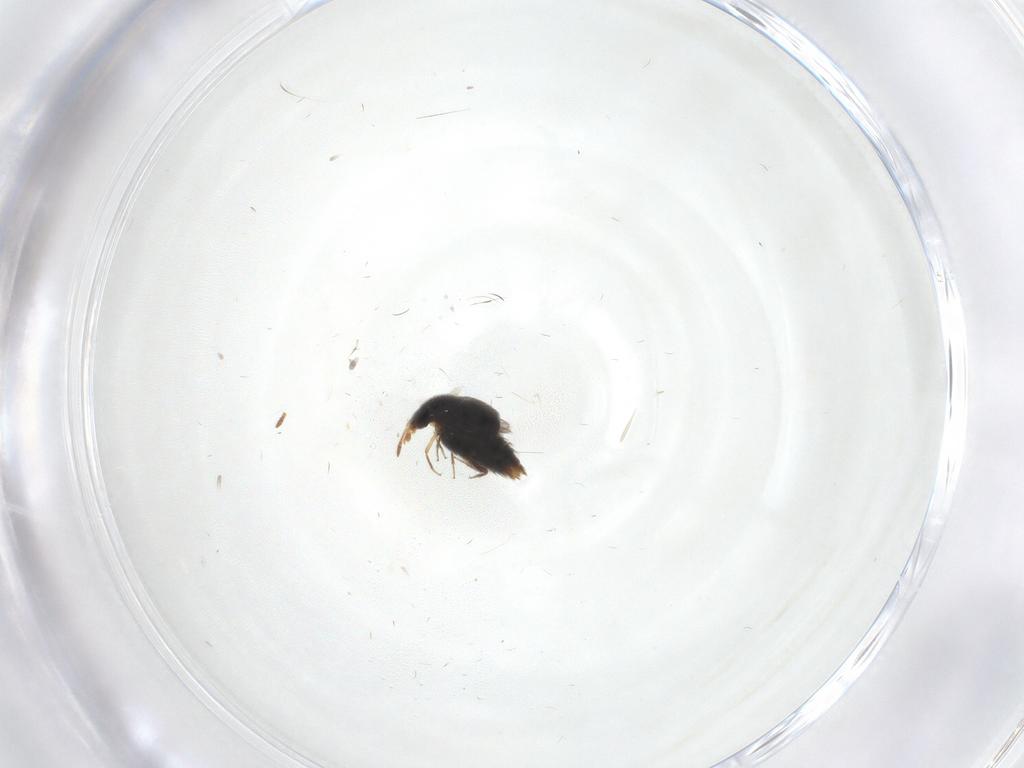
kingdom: Animalia
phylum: Arthropoda
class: Insecta
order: Coleoptera
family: Staphylinidae
